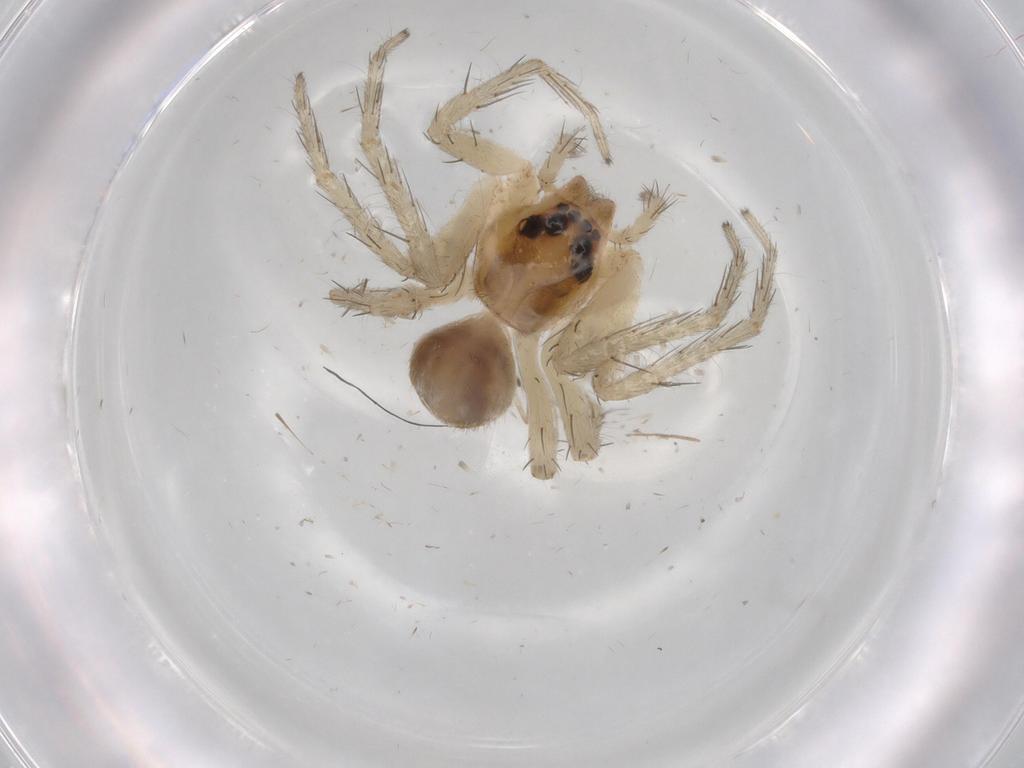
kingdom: Animalia
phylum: Arthropoda
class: Arachnida
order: Araneae
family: Pisauridae
